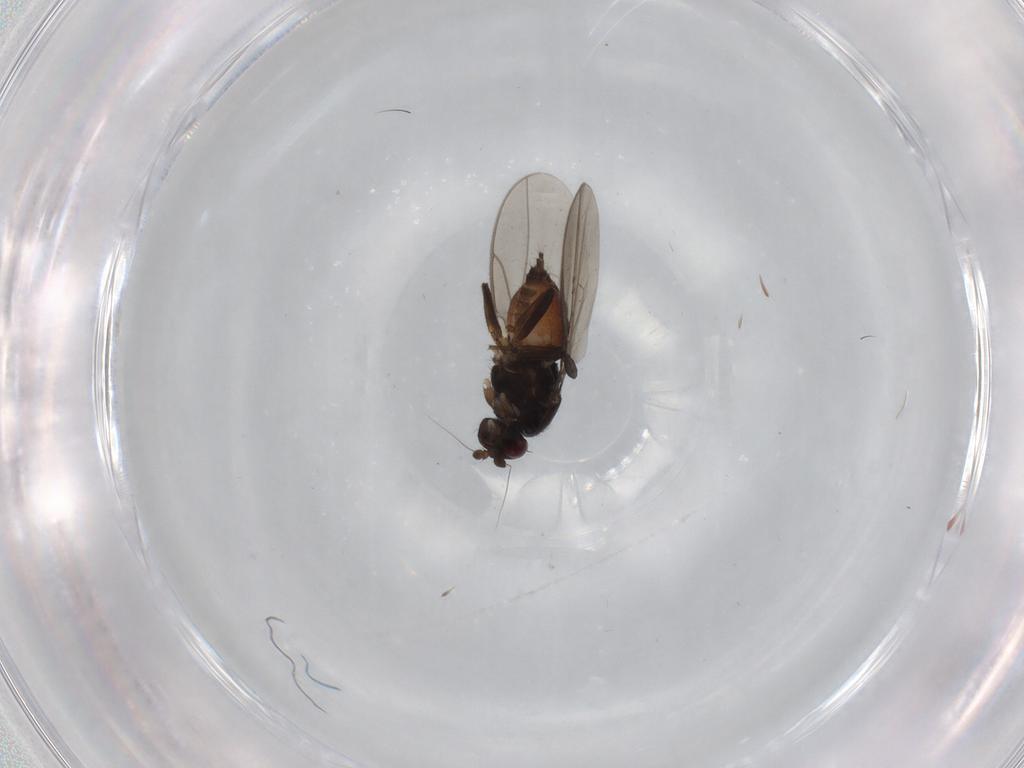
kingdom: Animalia
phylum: Arthropoda
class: Insecta
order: Diptera
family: Sphaeroceridae
